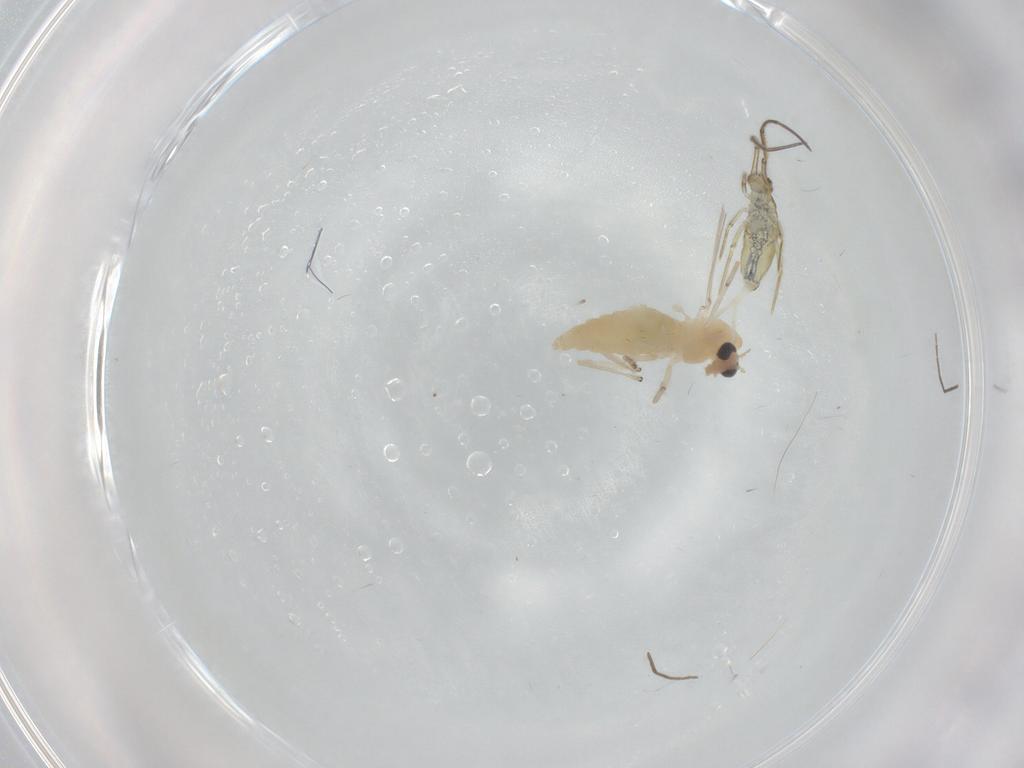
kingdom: Animalia
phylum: Arthropoda
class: Insecta
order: Diptera
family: Chironomidae
